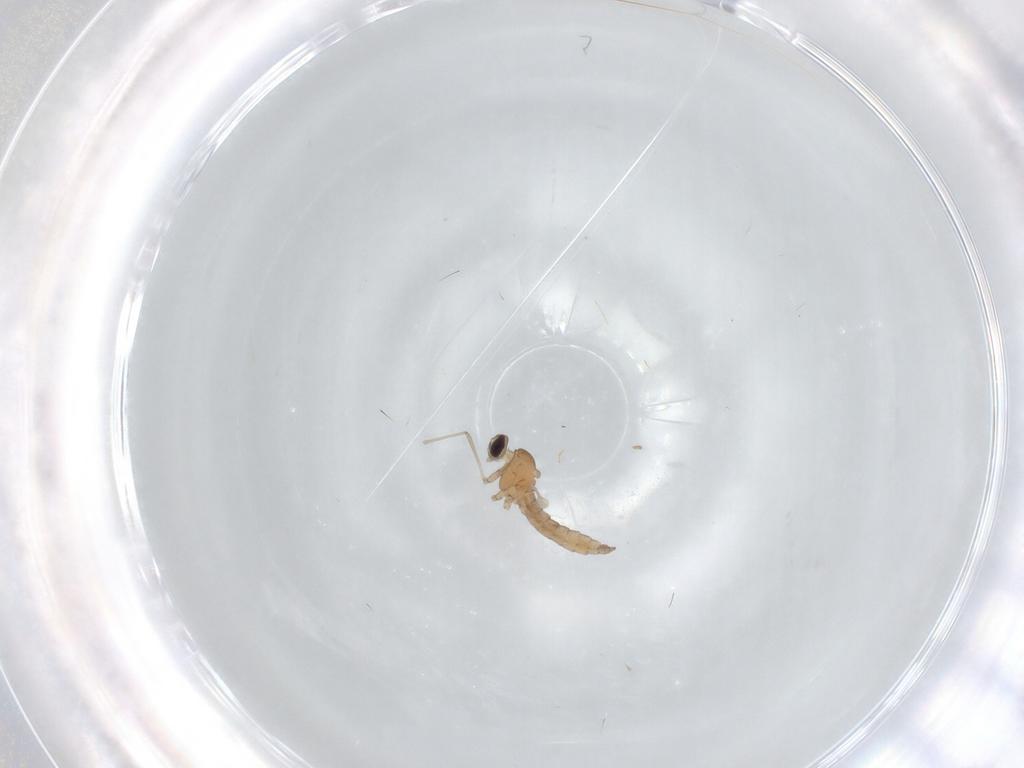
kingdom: Animalia
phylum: Arthropoda
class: Insecta
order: Diptera
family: Cecidomyiidae
